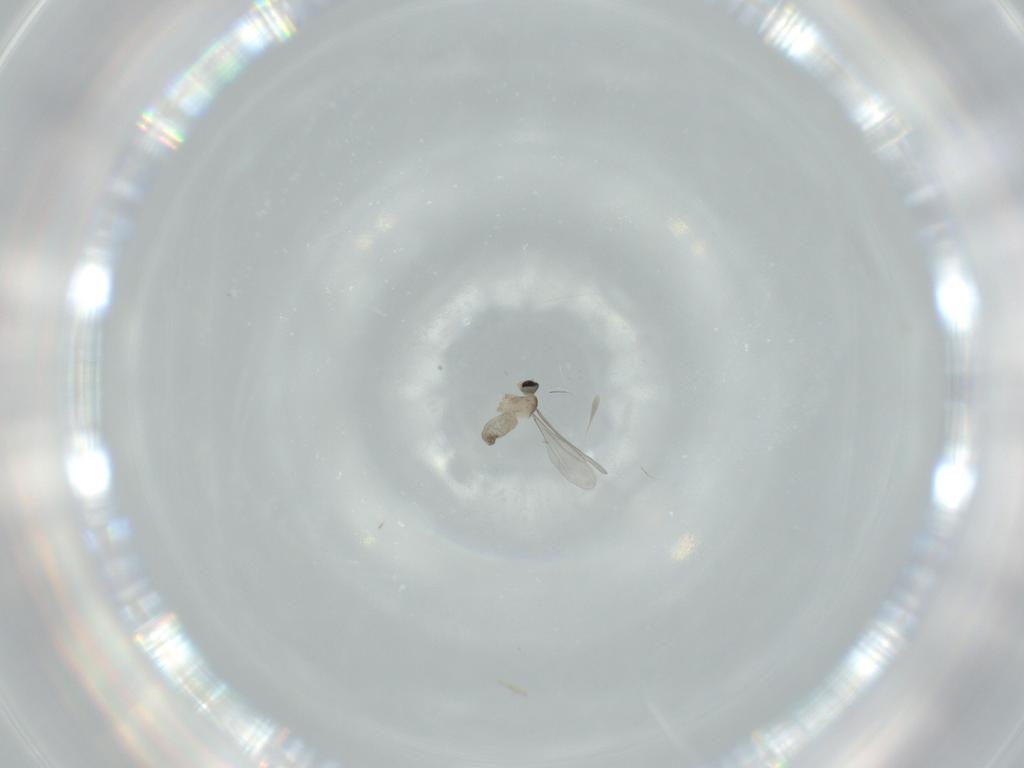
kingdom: Animalia
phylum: Arthropoda
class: Insecta
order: Diptera
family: Cecidomyiidae
